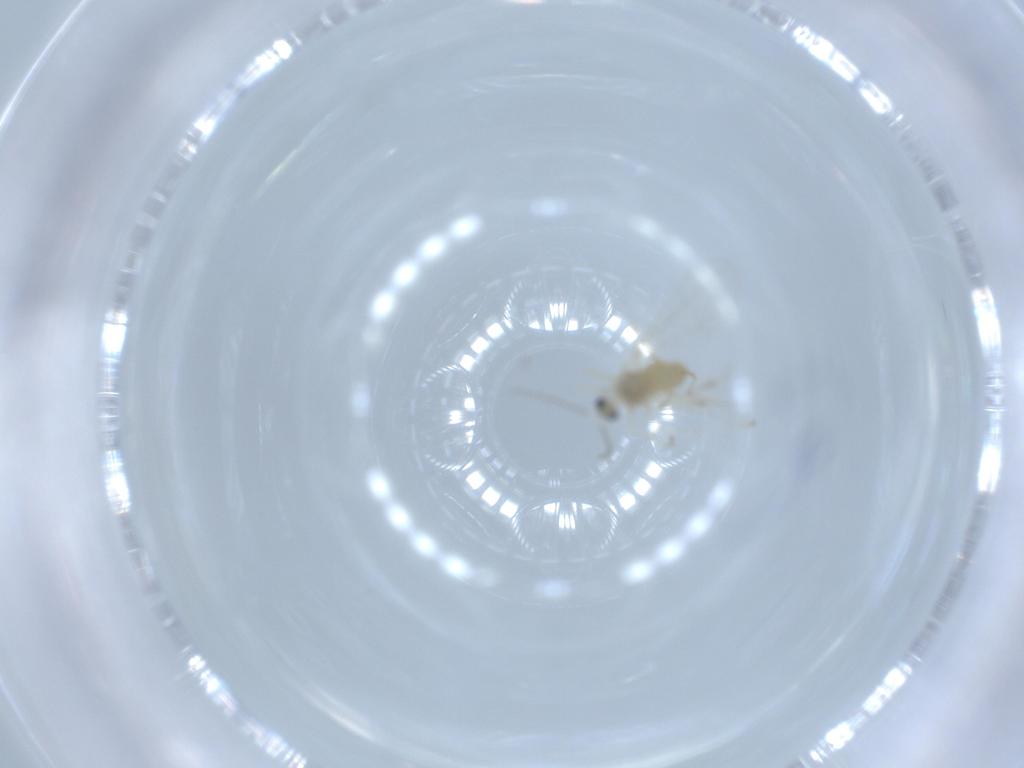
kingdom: Animalia
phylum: Arthropoda
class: Insecta
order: Diptera
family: Cecidomyiidae
